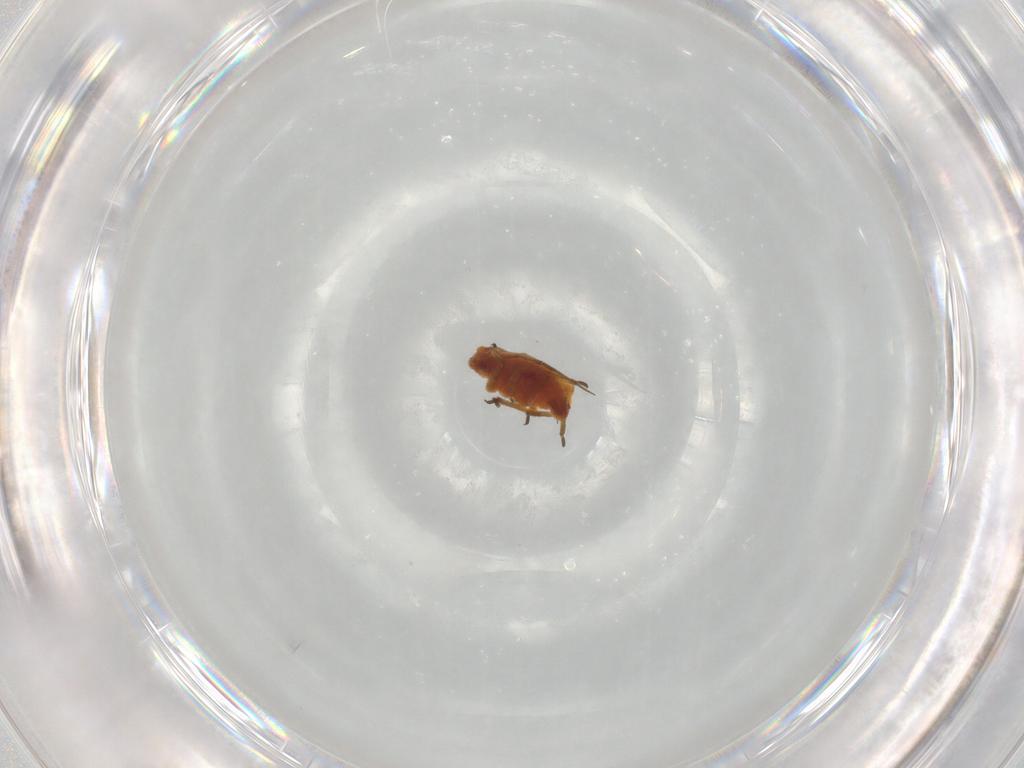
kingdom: Animalia
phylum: Arthropoda
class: Insecta
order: Hemiptera
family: Aphididae
